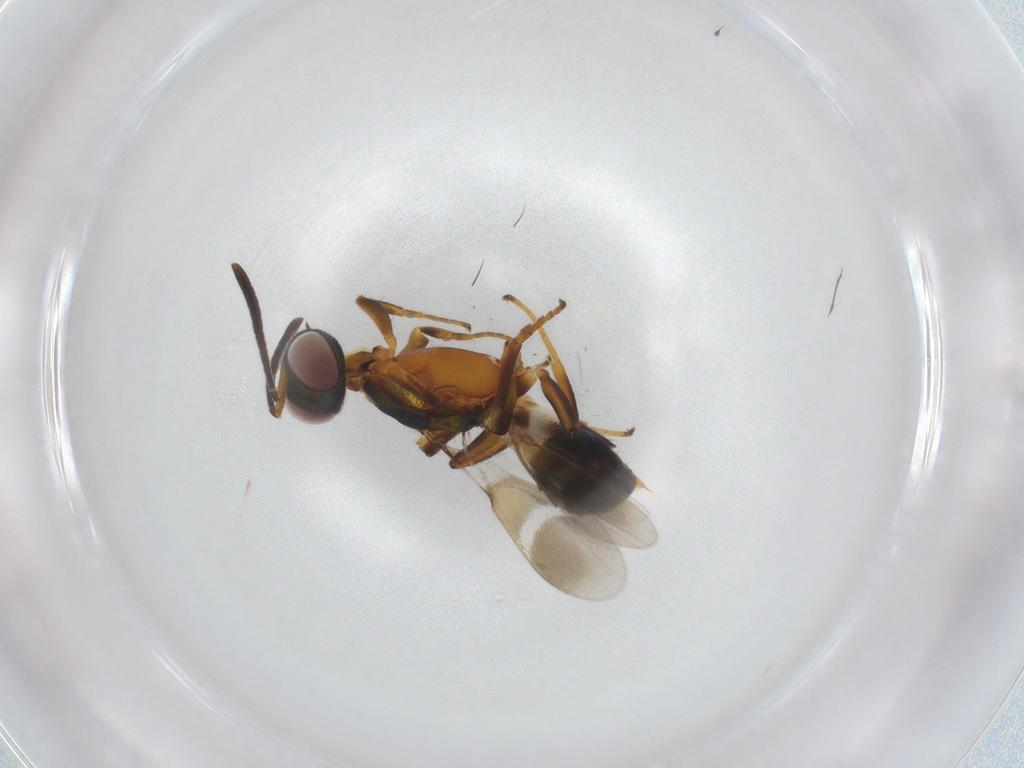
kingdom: Animalia
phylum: Arthropoda
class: Insecta
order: Hymenoptera
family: Eupelmidae
